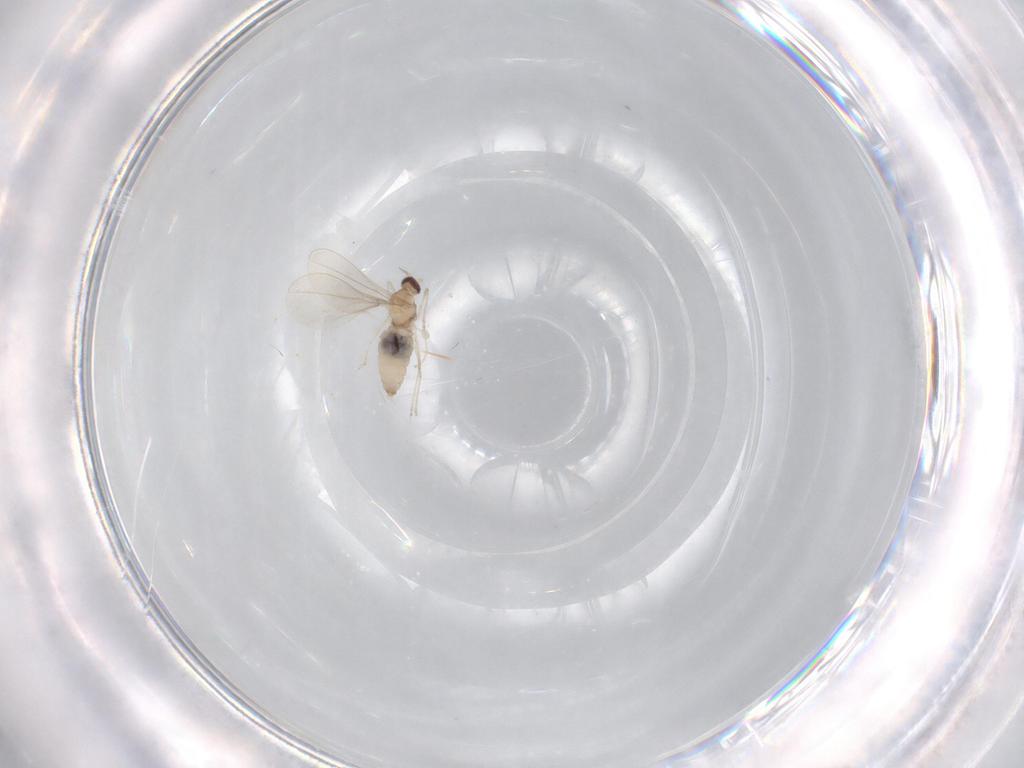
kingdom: Animalia
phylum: Arthropoda
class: Insecta
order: Diptera
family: Cecidomyiidae
